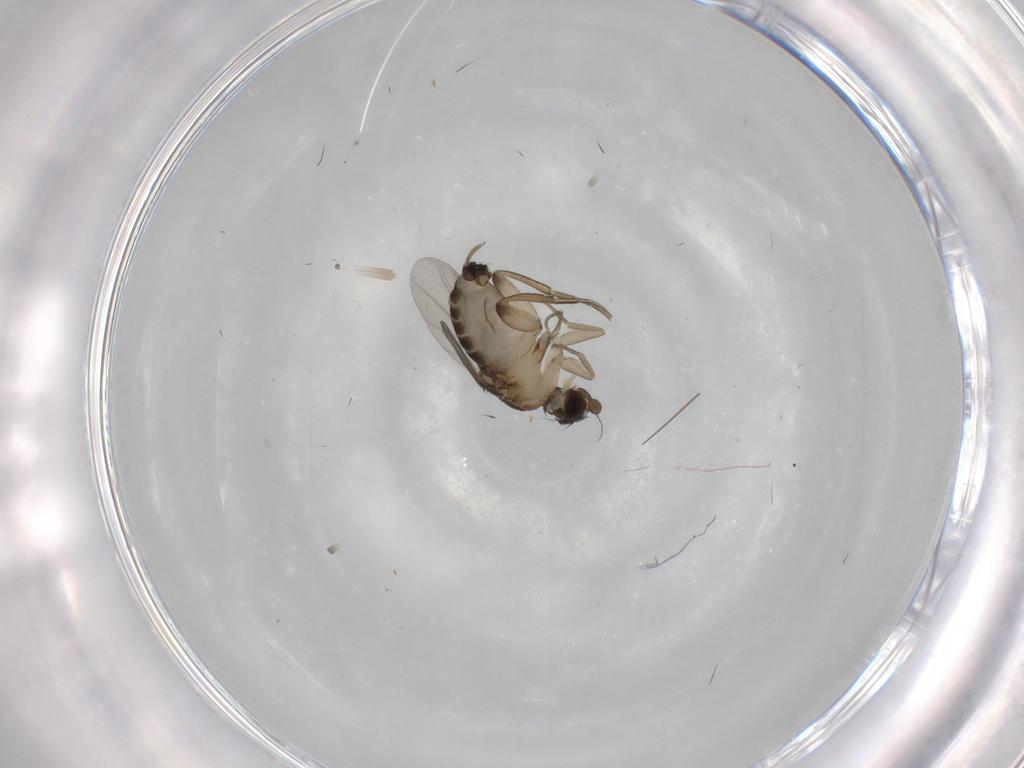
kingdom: Animalia
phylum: Arthropoda
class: Insecta
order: Diptera
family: Phoridae
